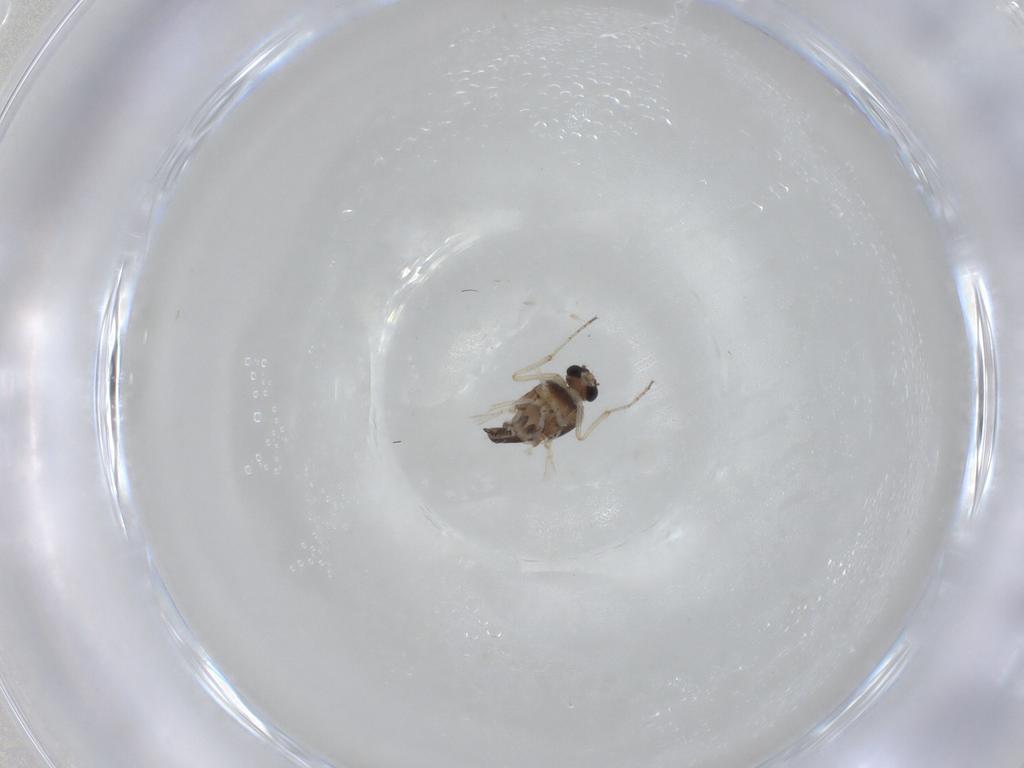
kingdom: Animalia
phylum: Arthropoda
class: Insecta
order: Diptera
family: Ceratopogonidae
